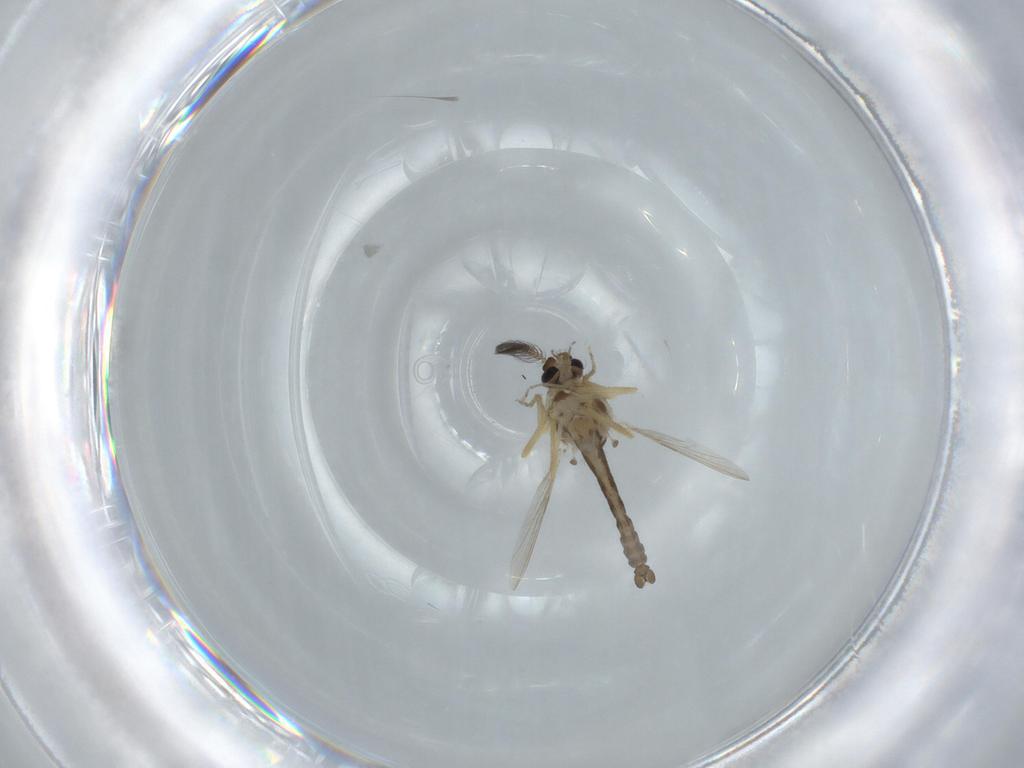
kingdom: Animalia
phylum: Arthropoda
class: Insecta
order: Diptera
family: Ceratopogonidae
